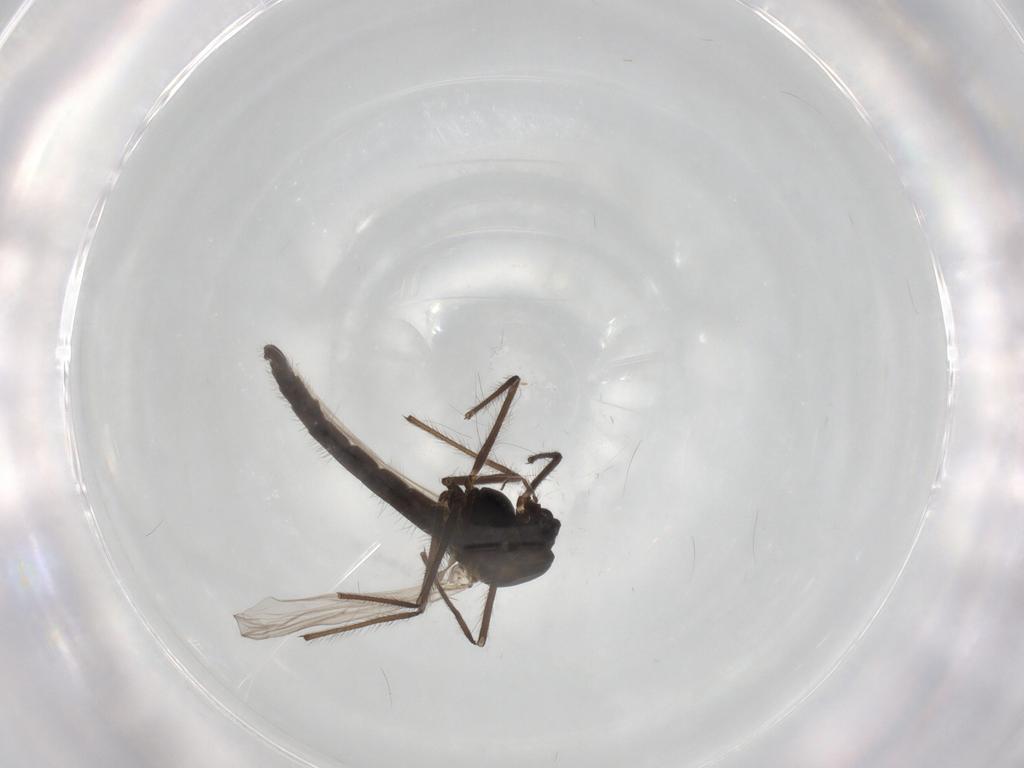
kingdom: Animalia
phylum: Arthropoda
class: Insecta
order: Diptera
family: Chironomidae
